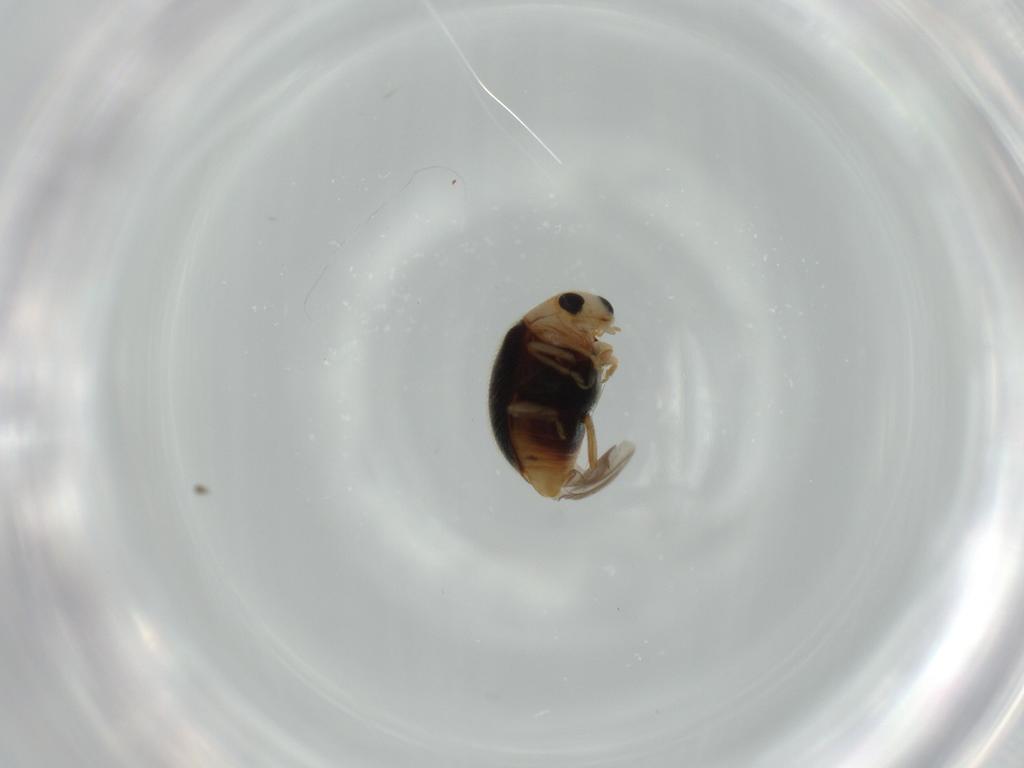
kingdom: Animalia
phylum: Arthropoda
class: Insecta
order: Coleoptera
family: Coccinellidae
